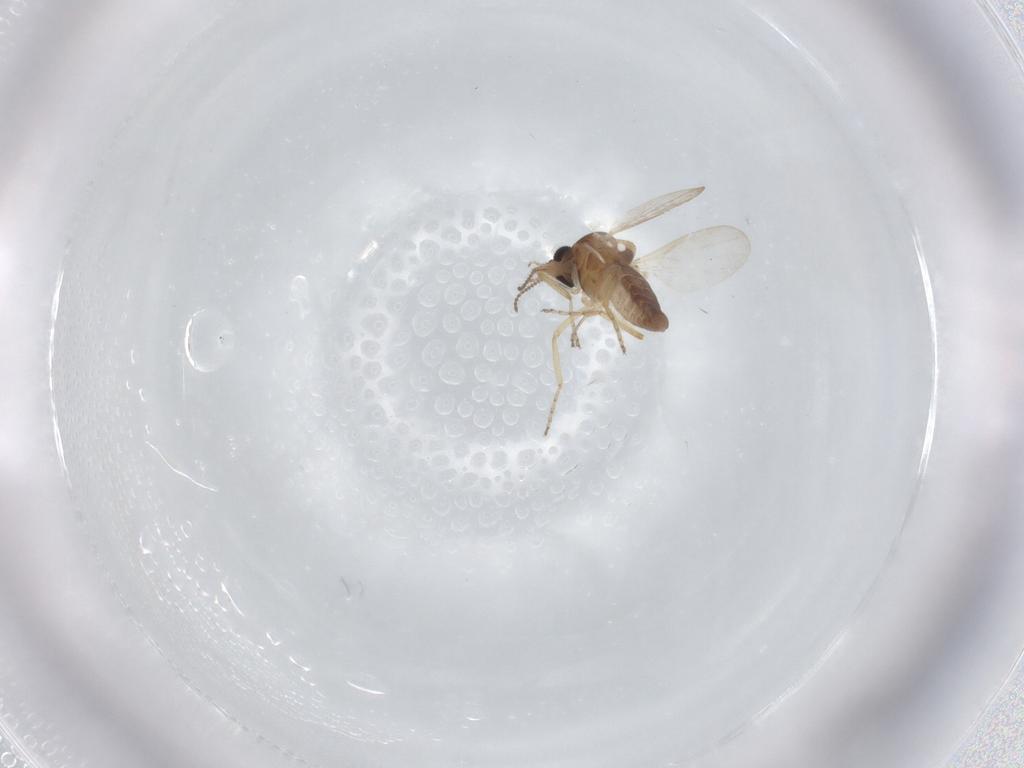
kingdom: Animalia
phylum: Arthropoda
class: Insecta
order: Diptera
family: Ceratopogonidae
